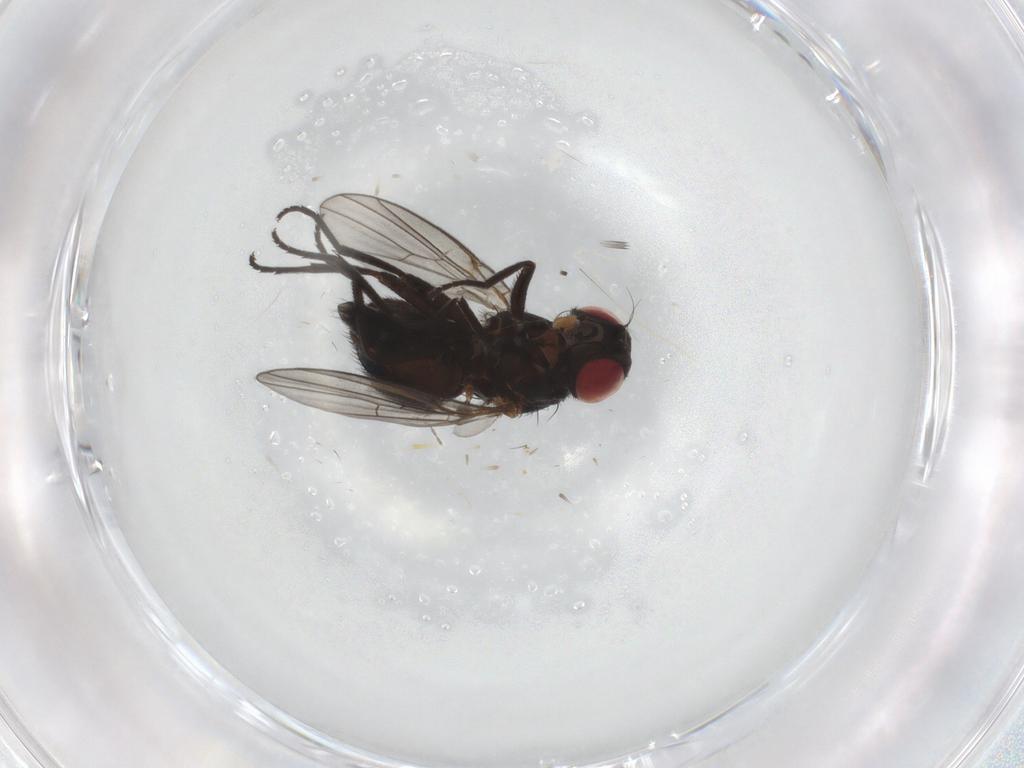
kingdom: Animalia
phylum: Arthropoda
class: Insecta
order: Diptera
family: Agromyzidae
